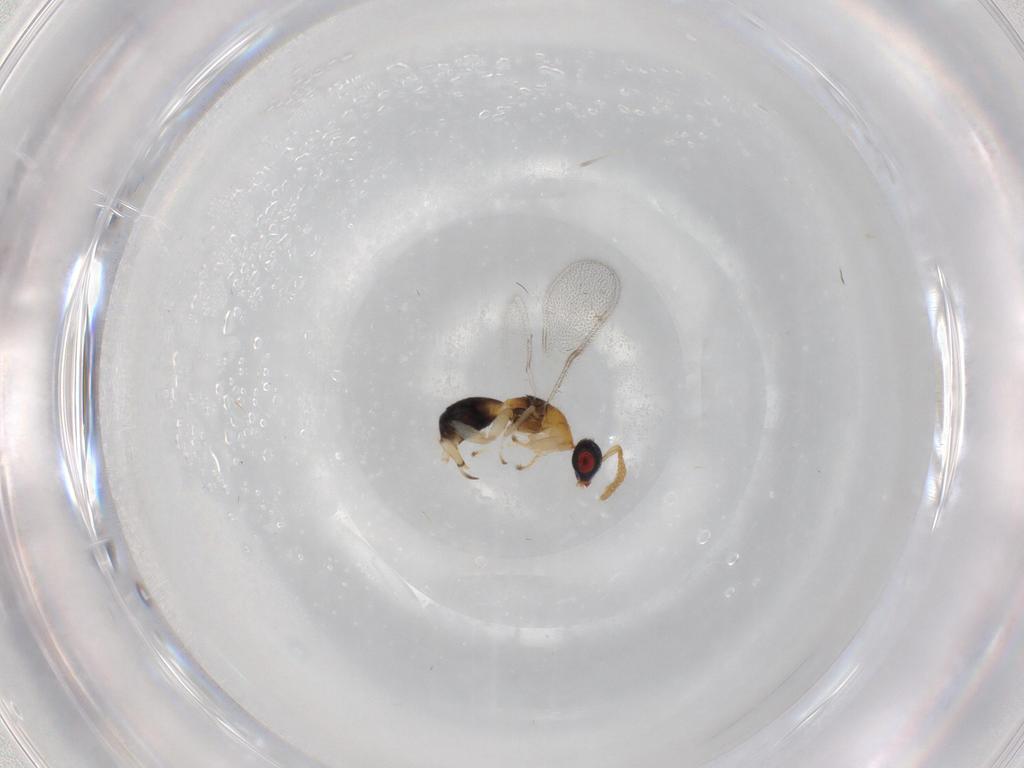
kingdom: Animalia
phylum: Arthropoda
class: Insecta
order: Hymenoptera
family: Torymidae
